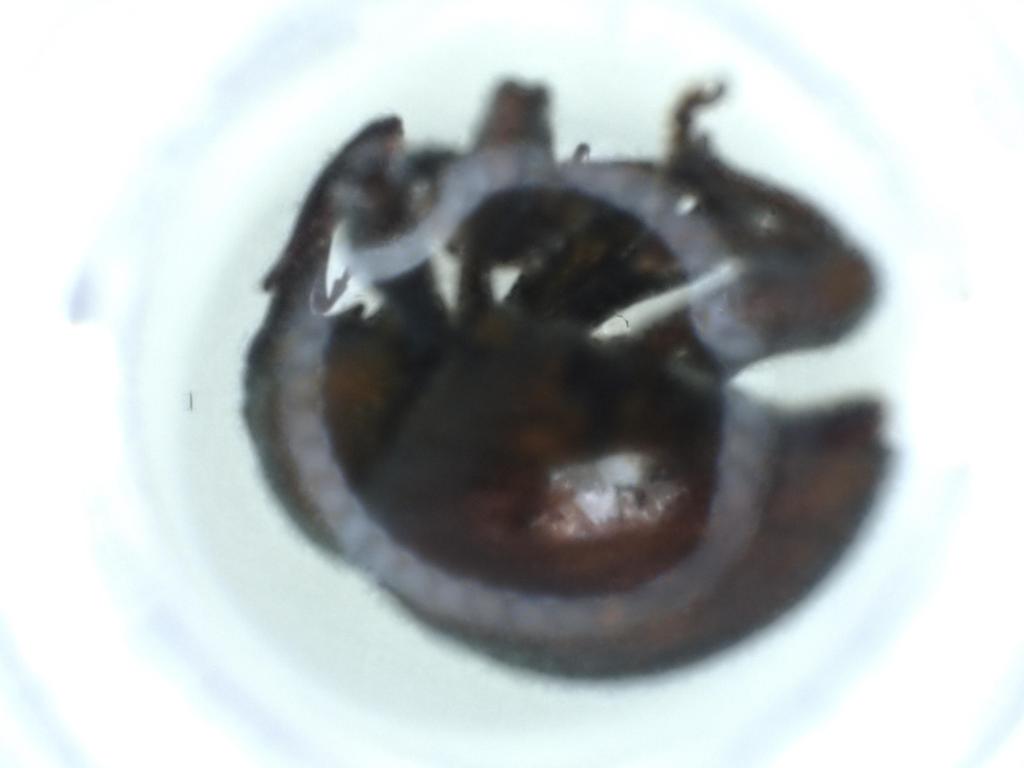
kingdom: Animalia
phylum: Arthropoda
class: Insecta
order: Coleoptera
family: Curculionidae
